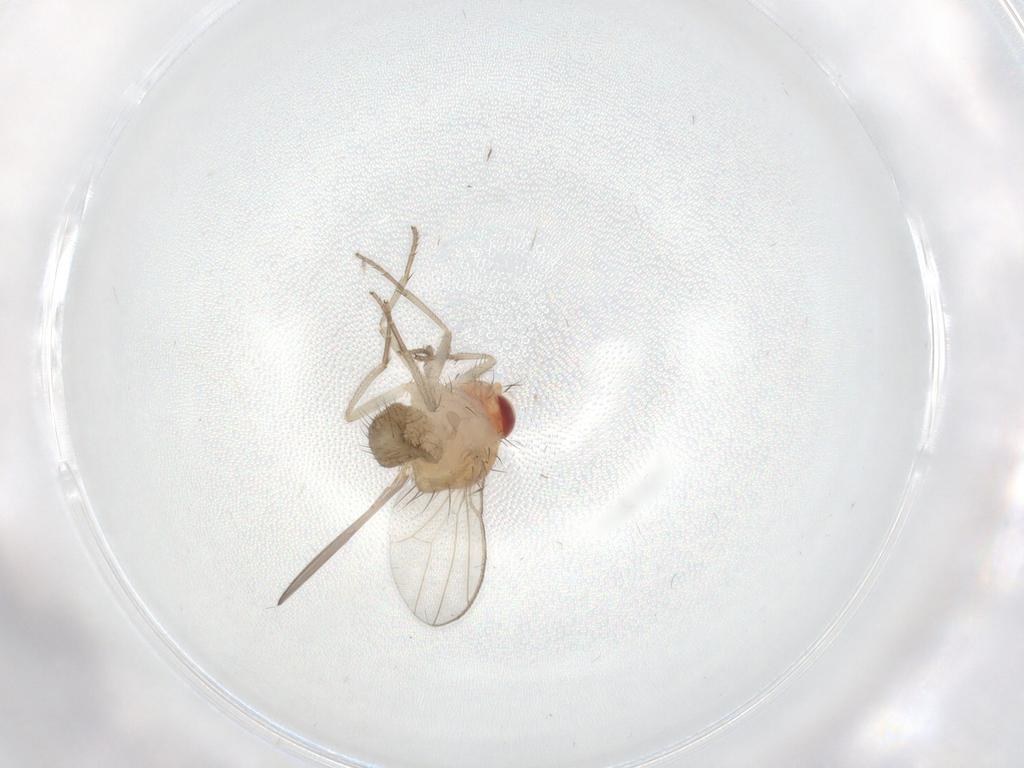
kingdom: Animalia
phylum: Arthropoda
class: Insecta
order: Diptera
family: Drosophilidae
